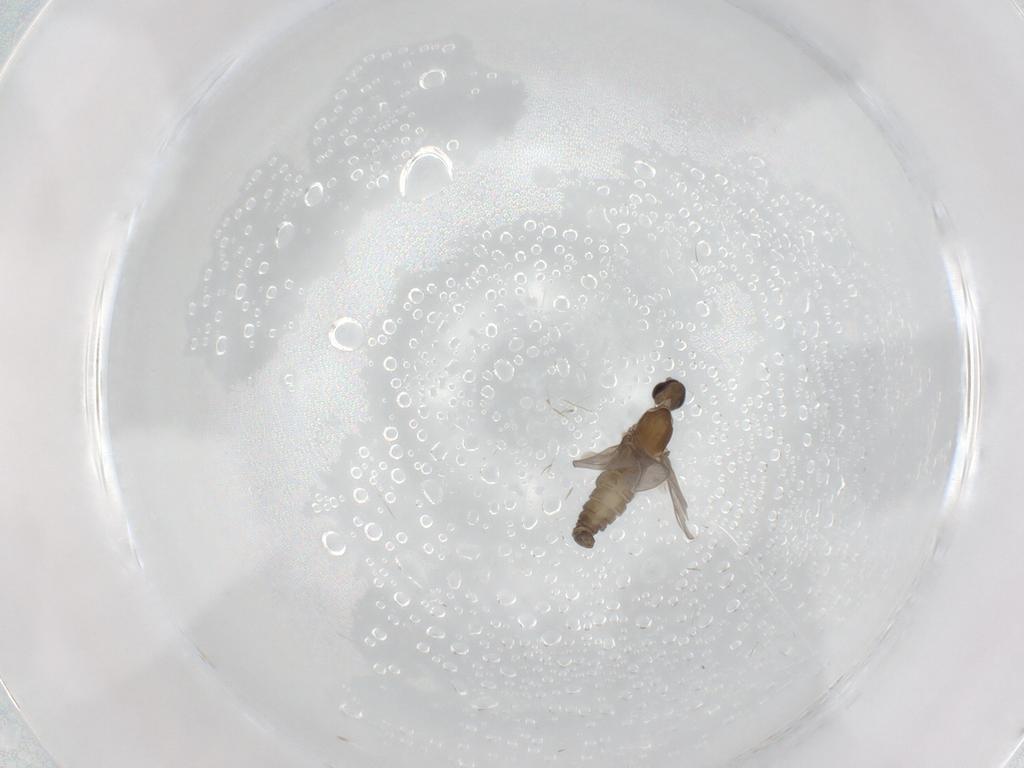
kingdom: Animalia
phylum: Arthropoda
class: Insecta
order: Diptera
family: Cecidomyiidae
